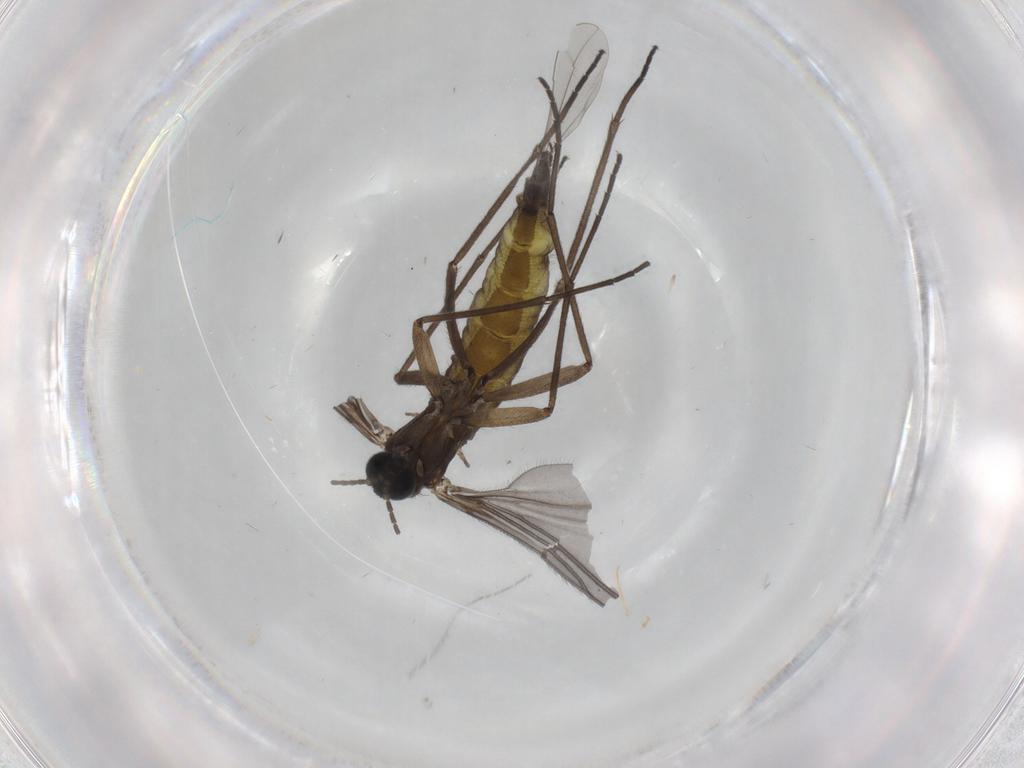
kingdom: Animalia
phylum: Arthropoda
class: Insecta
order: Diptera
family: Sciaridae
